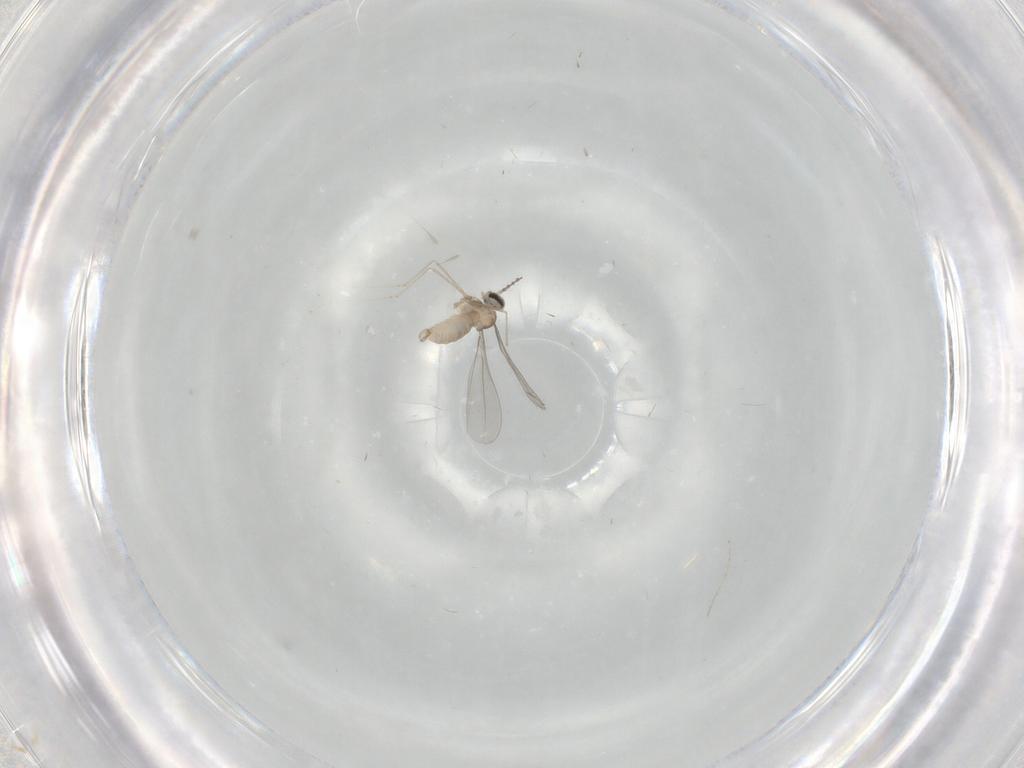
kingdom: Animalia
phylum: Arthropoda
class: Insecta
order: Diptera
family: Cecidomyiidae
